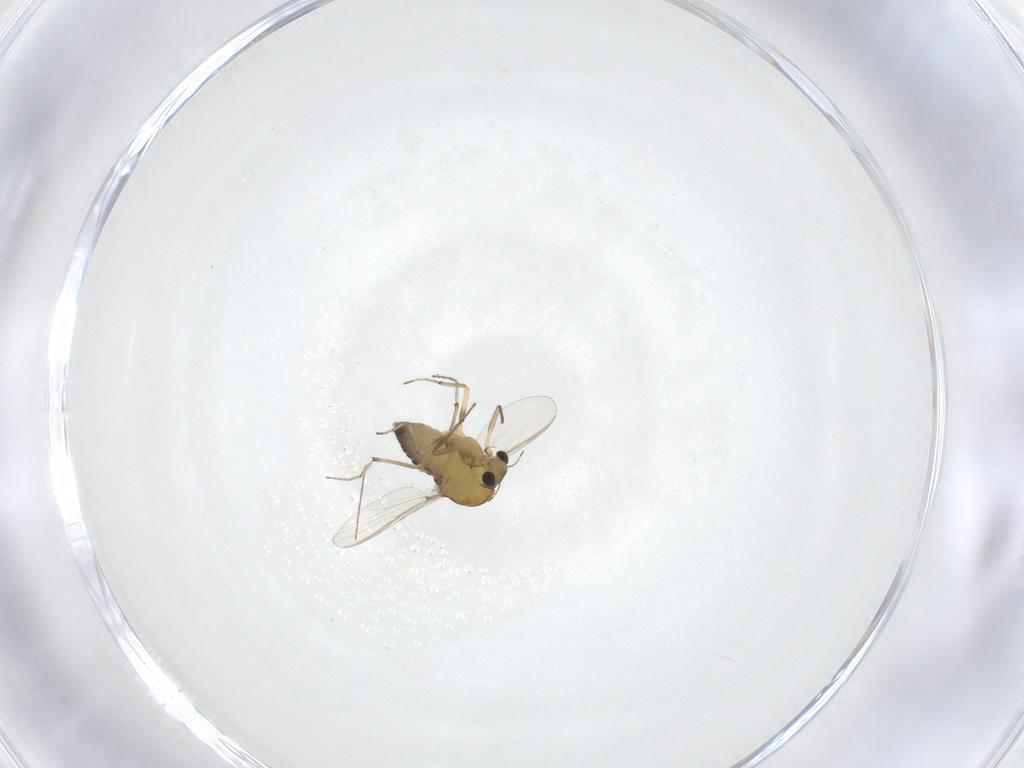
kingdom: Animalia
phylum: Arthropoda
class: Insecta
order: Diptera
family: Chironomidae
